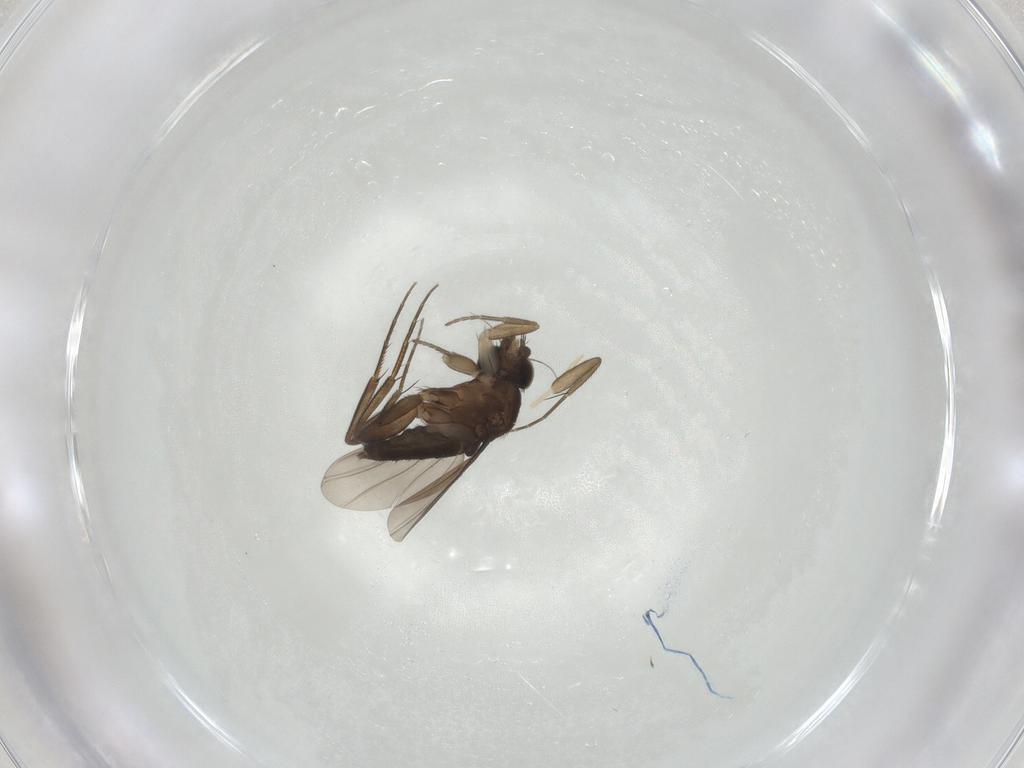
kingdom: Animalia
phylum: Arthropoda
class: Insecta
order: Diptera
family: Phoridae
